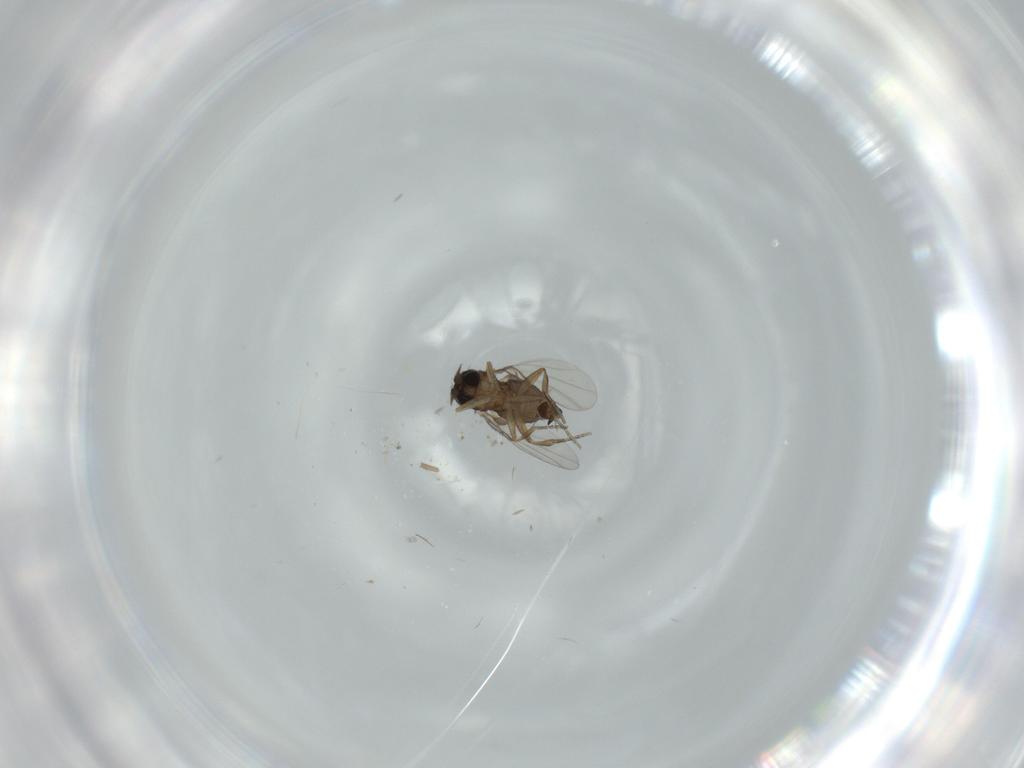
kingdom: Animalia
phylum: Arthropoda
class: Insecta
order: Diptera
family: Phoridae
